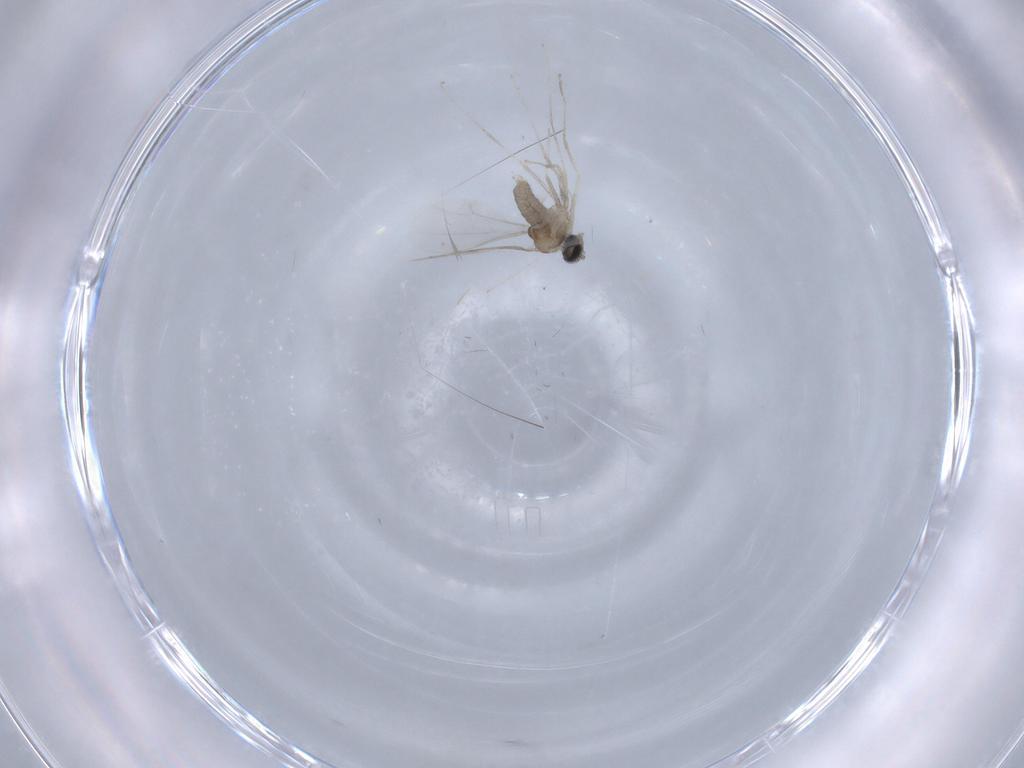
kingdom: Animalia
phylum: Arthropoda
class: Insecta
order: Diptera
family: Cecidomyiidae
